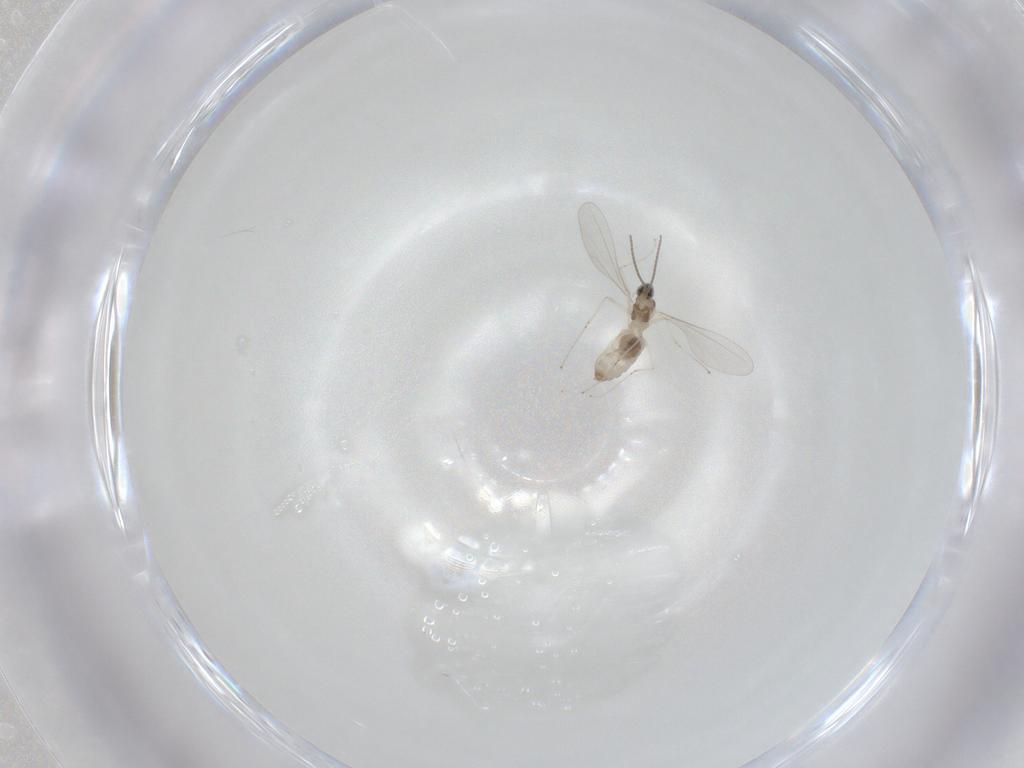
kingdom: Animalia
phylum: Arthropoda
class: Insecta
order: Diptera
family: Cecidomyiidae
